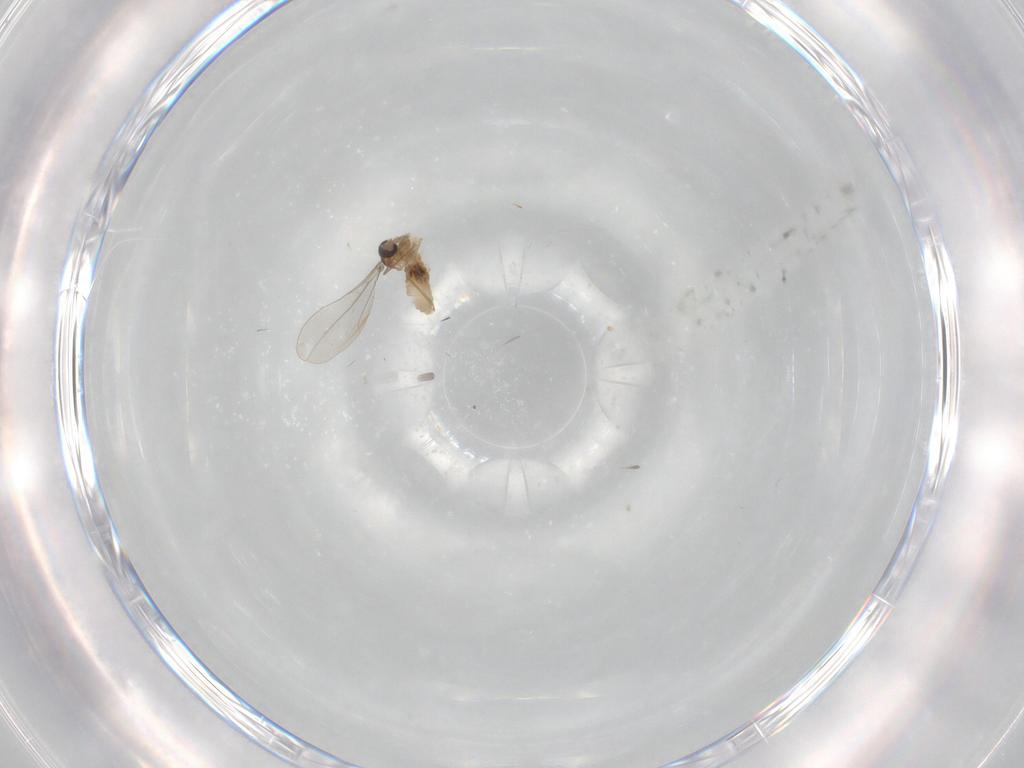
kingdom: Animalia
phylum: Arthropoda
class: Insecta
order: Diptera
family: Cecidomyiidae
